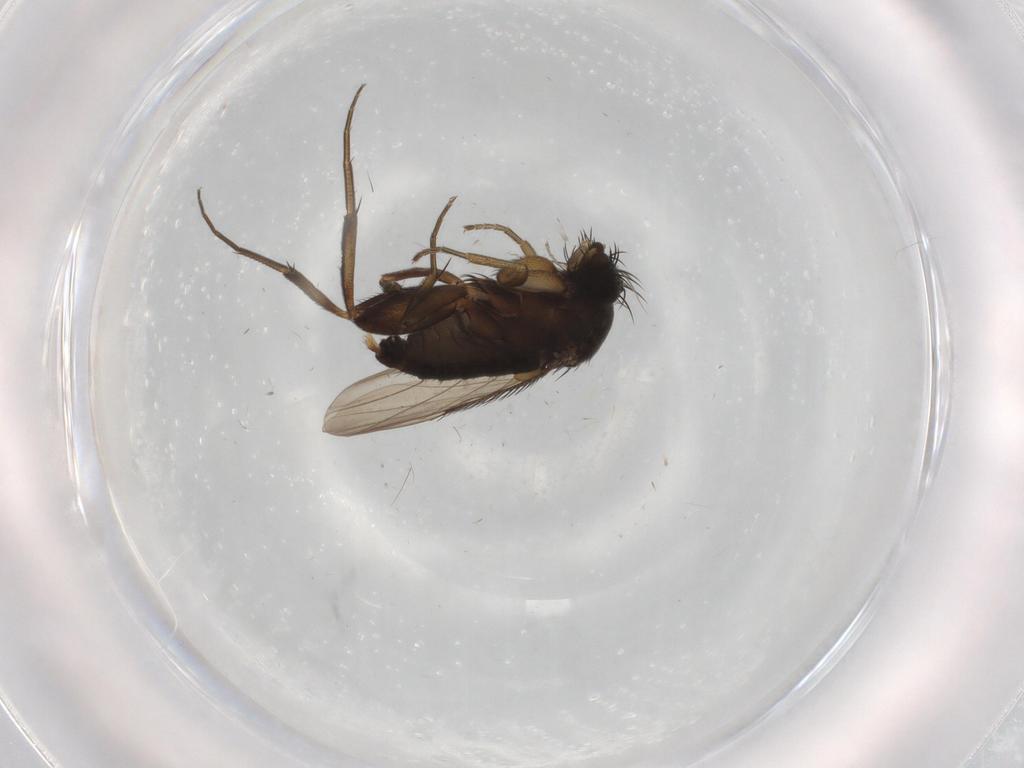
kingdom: Animalia
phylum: Arthropoda
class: Insecta
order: Diptera
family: Phoridae
